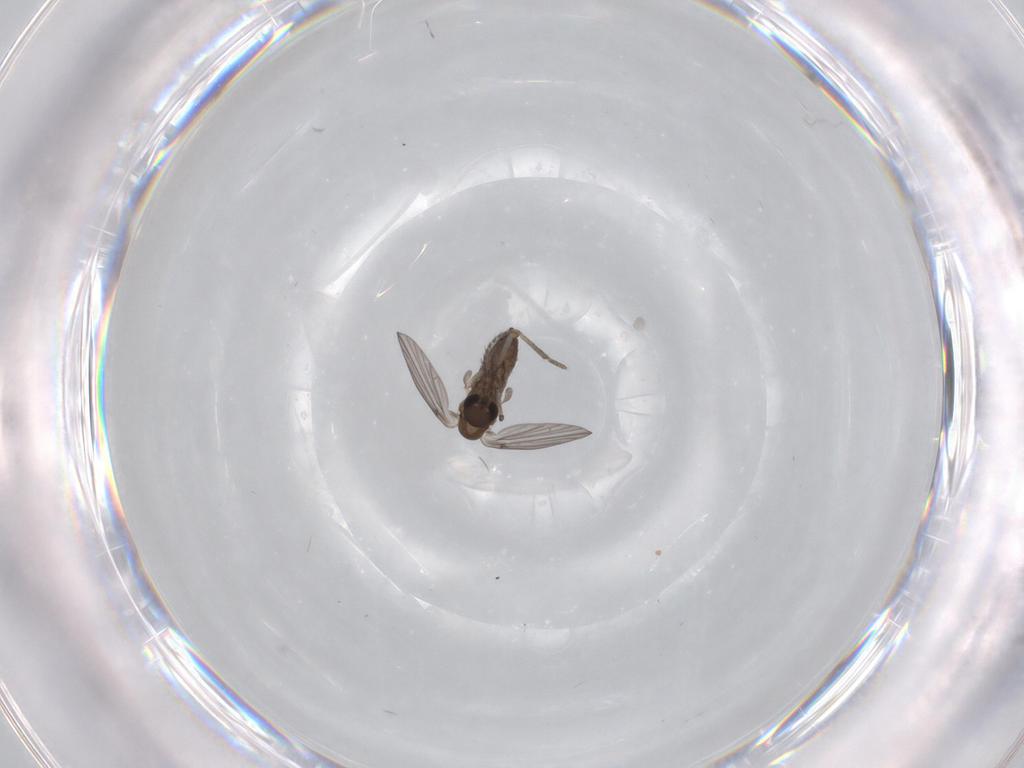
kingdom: Animalia
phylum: Arthropoda
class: Insecta
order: Diptera
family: Psychodidae
